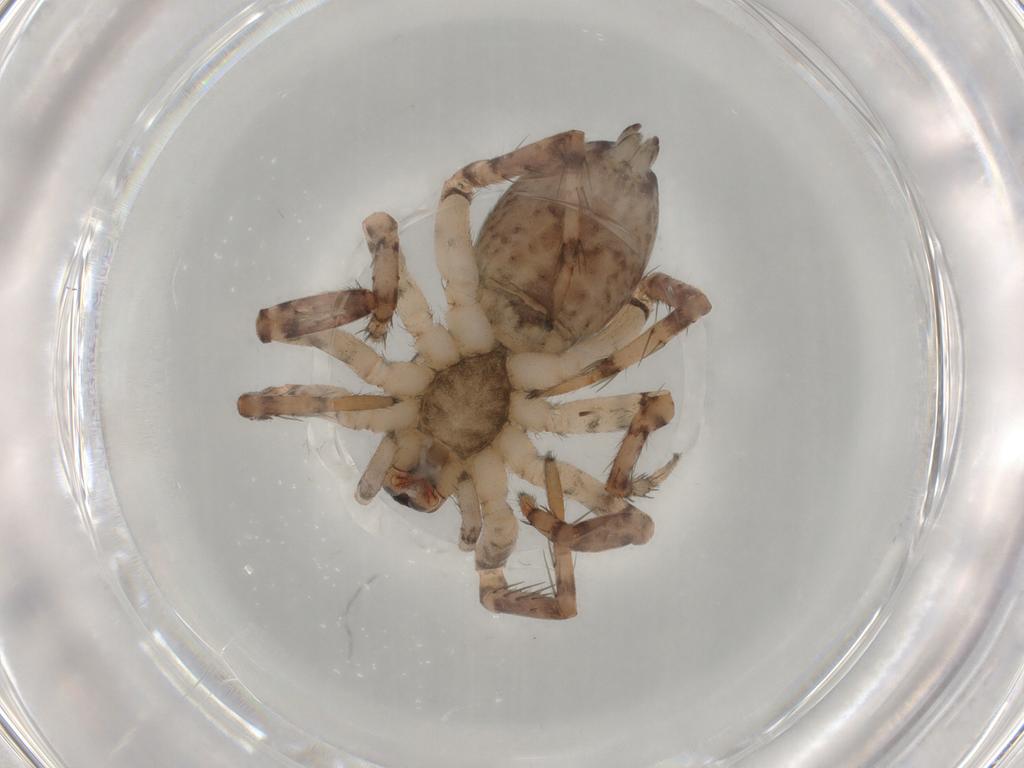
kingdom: Animalia
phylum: Arthropoda
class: Arachnida
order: Araneae
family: Anyphaenidae
